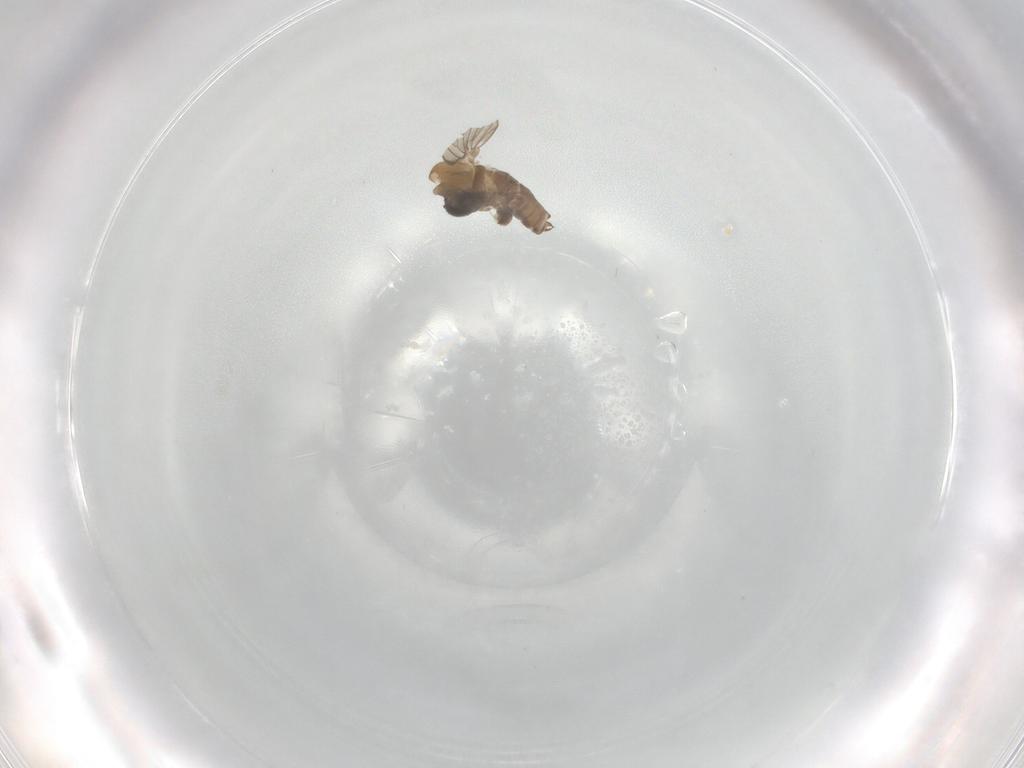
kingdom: Animalia
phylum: Arthropoda
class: Insecta
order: Diptera
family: Psychodidae
